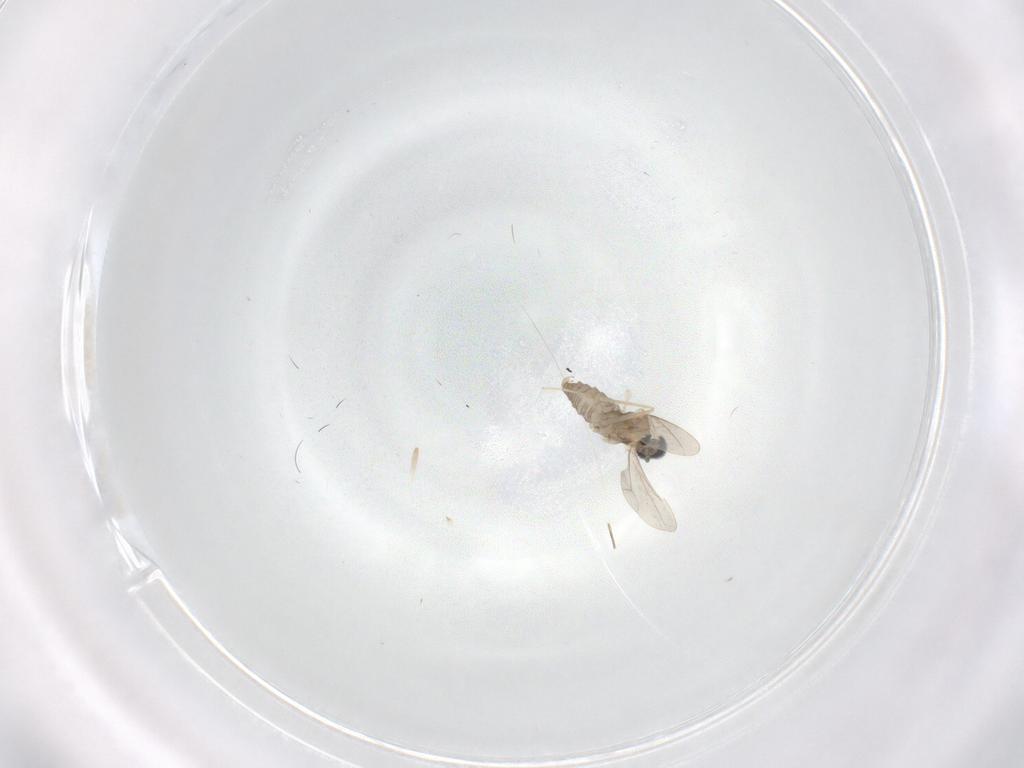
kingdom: Animalia
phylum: Arthropoda
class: Insecta
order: Diptera
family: Cecidomyiidae
